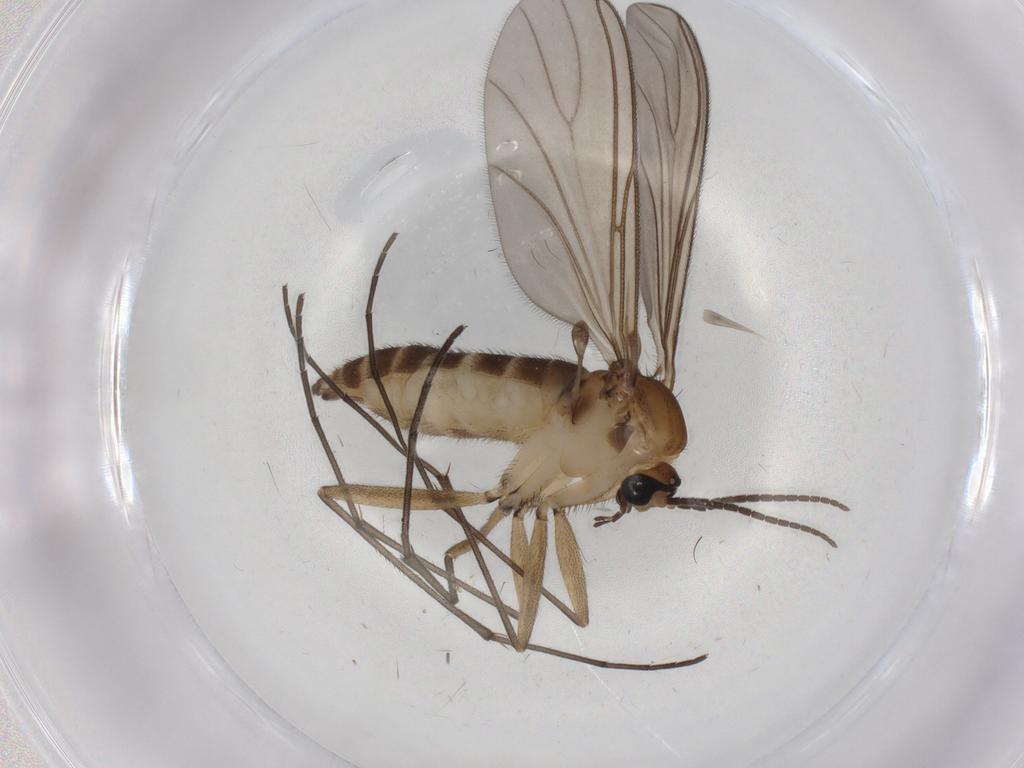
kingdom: Animalia
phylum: Arthropoda
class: Insecta
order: Diptera
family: Sciaridae
